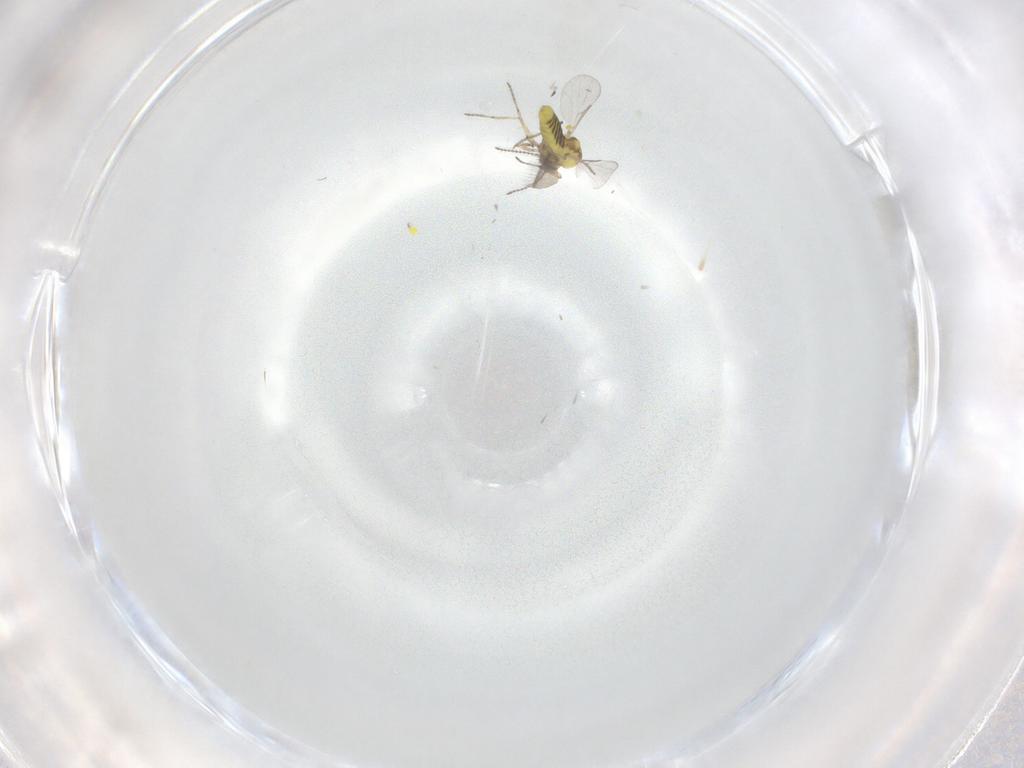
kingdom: Animalia
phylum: Arthropoda
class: Insecta
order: Diptera
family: Ceratopogonidae
